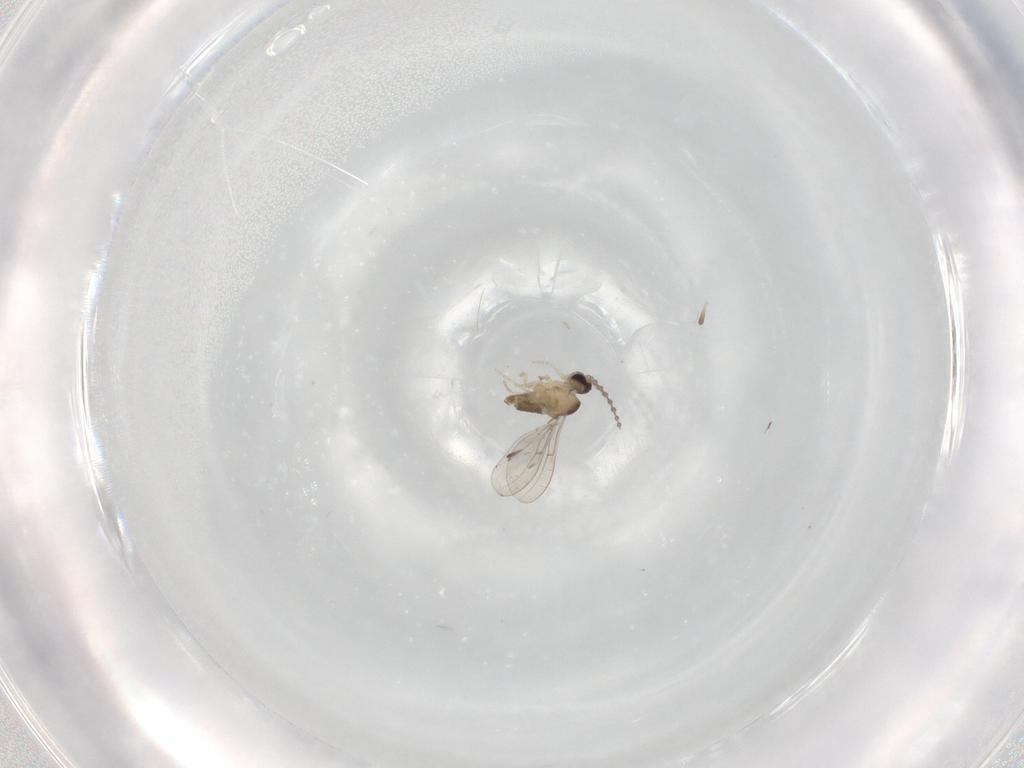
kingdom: Animalia
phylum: Arthropoda
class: Insecta
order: Diptera
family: Cecidomyiidae
